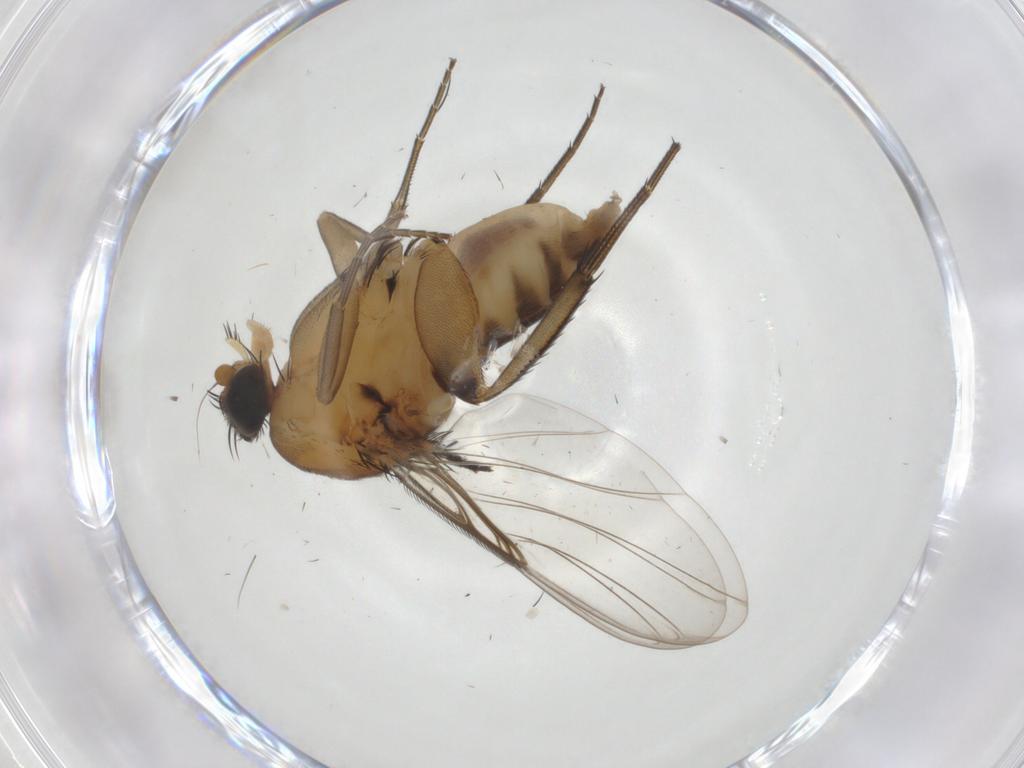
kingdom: Animalia
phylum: Arthropoda
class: Insecta
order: Diptera
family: Phoridae
